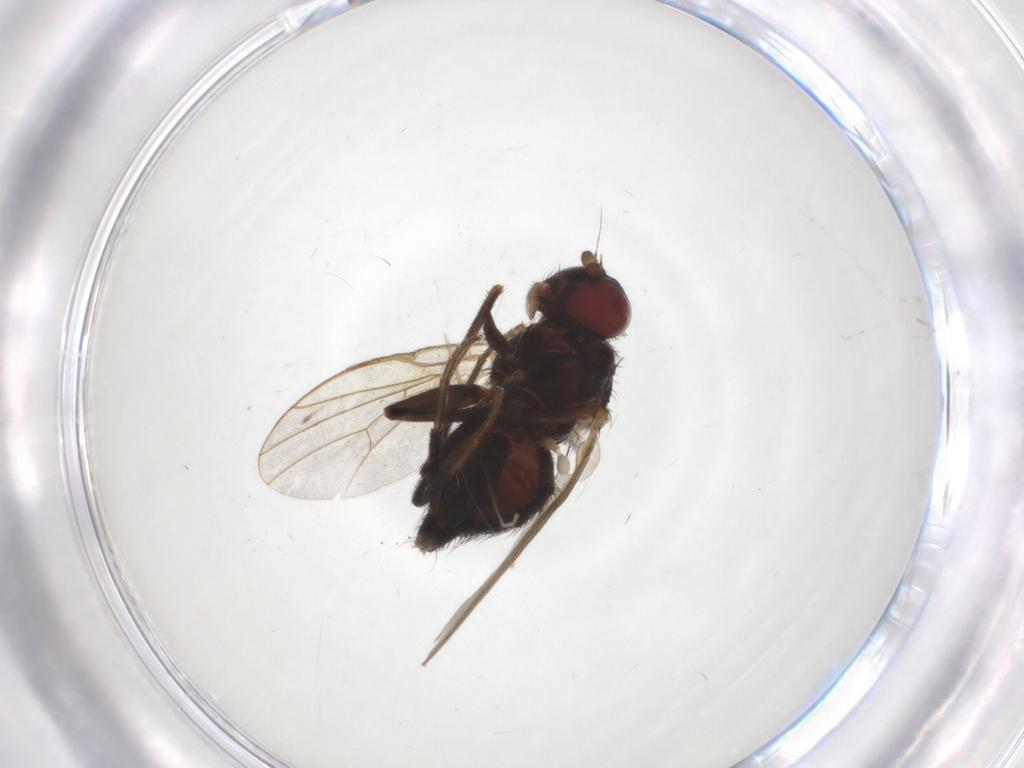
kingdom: Animalia
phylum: Arthropoda
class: Insecta
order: Diptera
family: Cecidomyiidae
